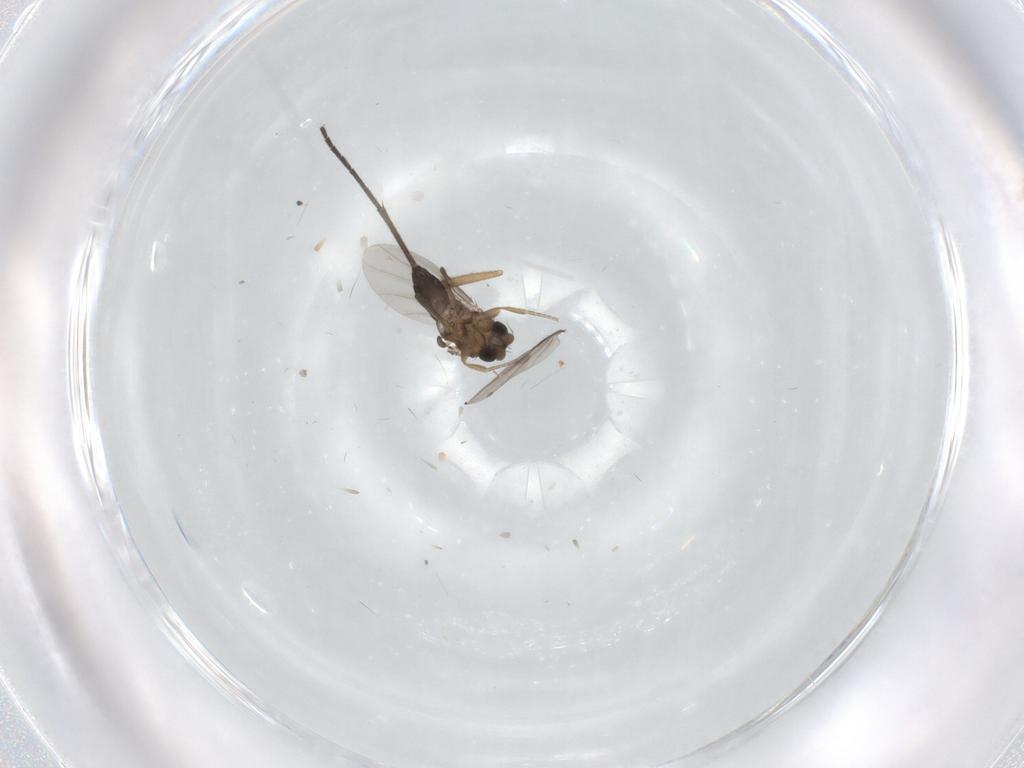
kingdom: Animalia
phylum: Arthropoda
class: Insecta
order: Diptera
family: Phoridae
